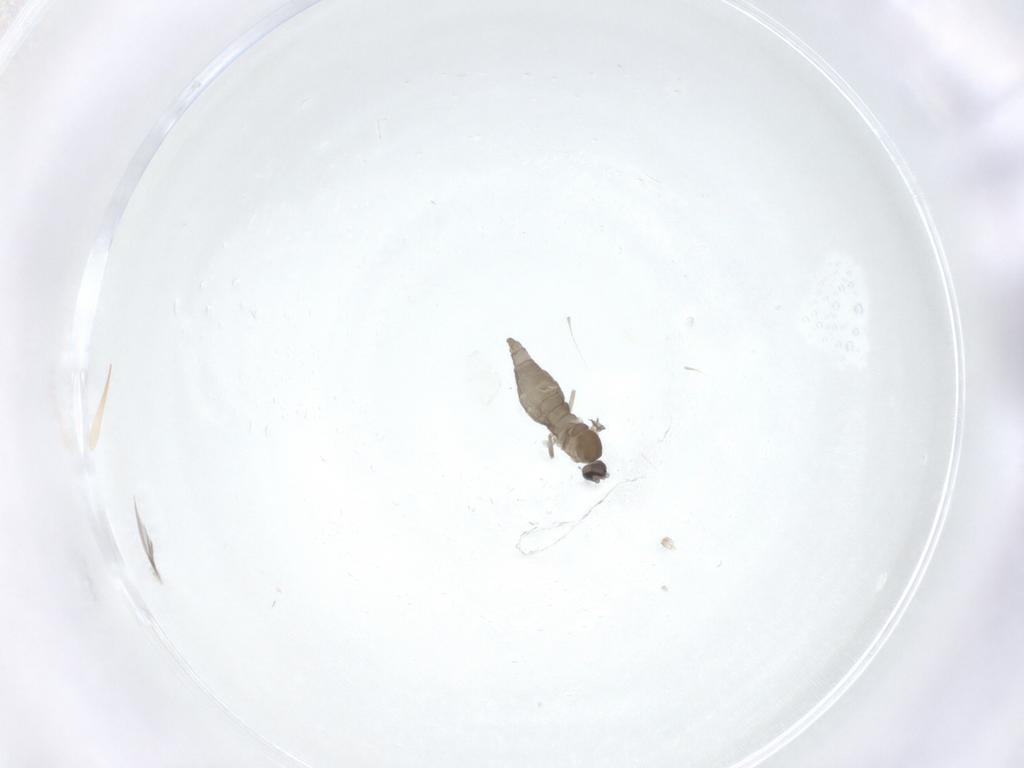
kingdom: Animalia
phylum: Arthropoda
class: Insecta
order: Diptera
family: Cecidomyiidae
